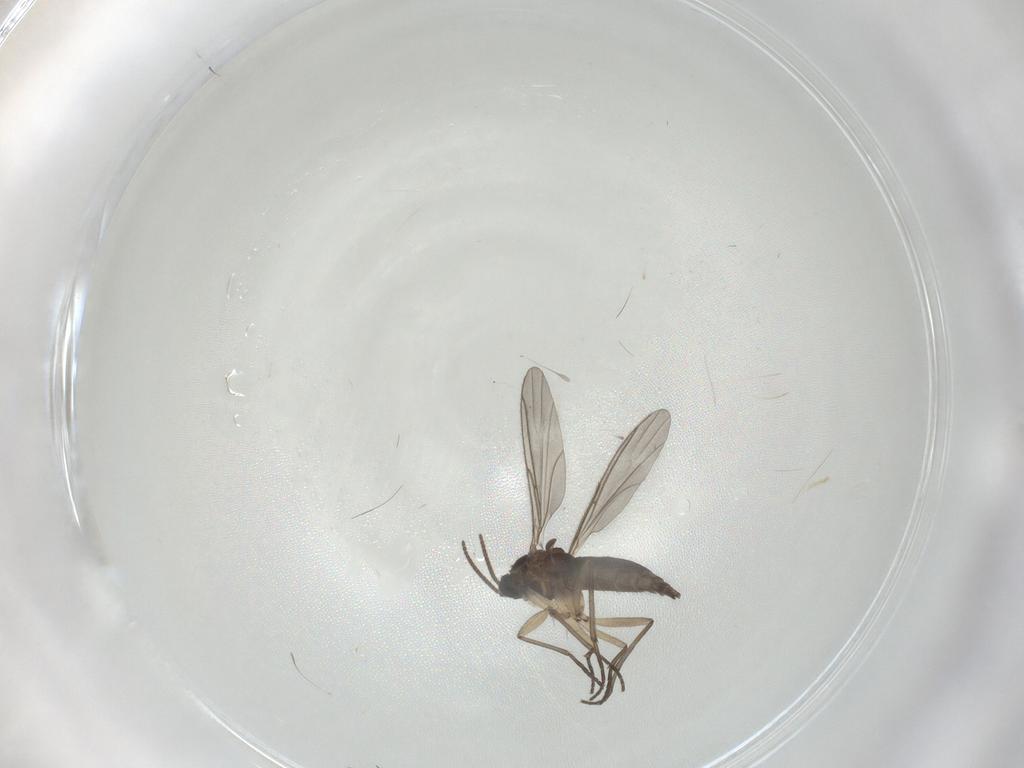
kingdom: Animalia
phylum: Arthropoda
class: Insecta
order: Diptera
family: Sciaridae
